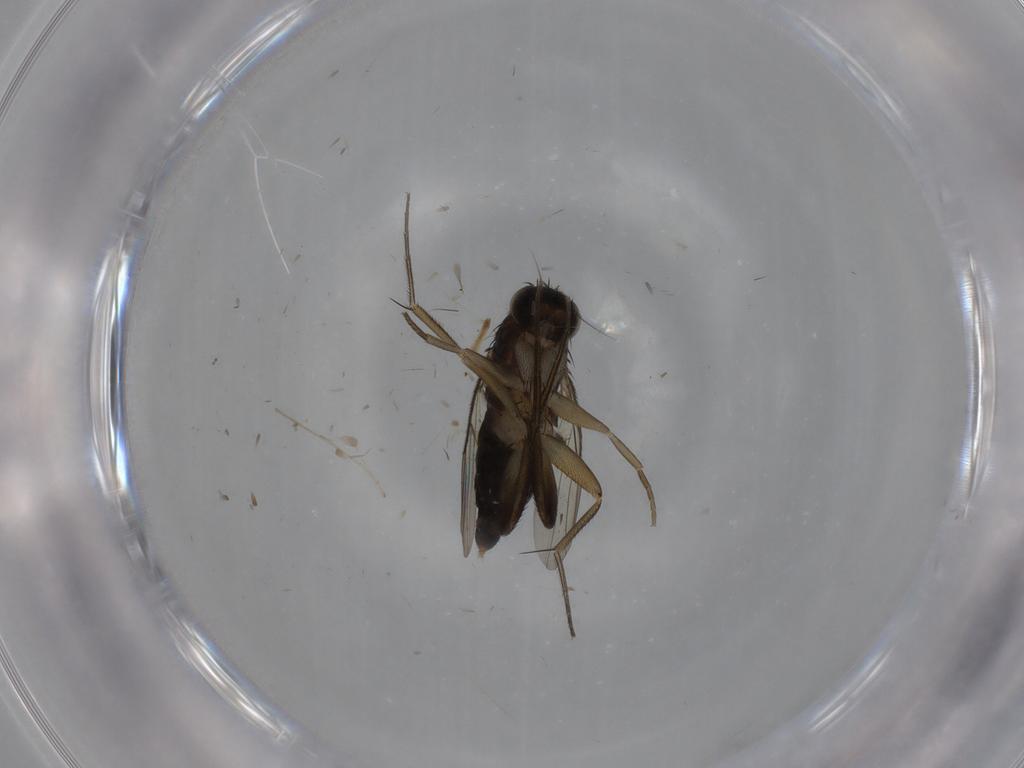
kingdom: Animalia
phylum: Arthropoda
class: Insecta
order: Diptera
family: Phoridae
